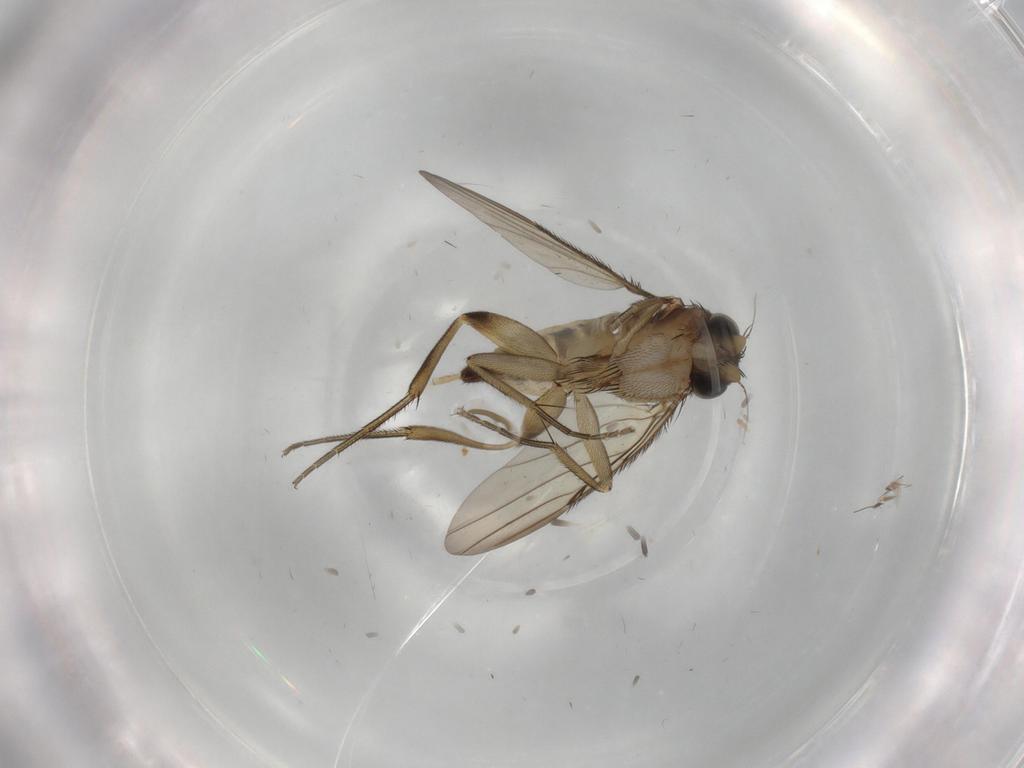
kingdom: Animalia
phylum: Arthropoda
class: Insecta
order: Diptera
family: Phoridae
